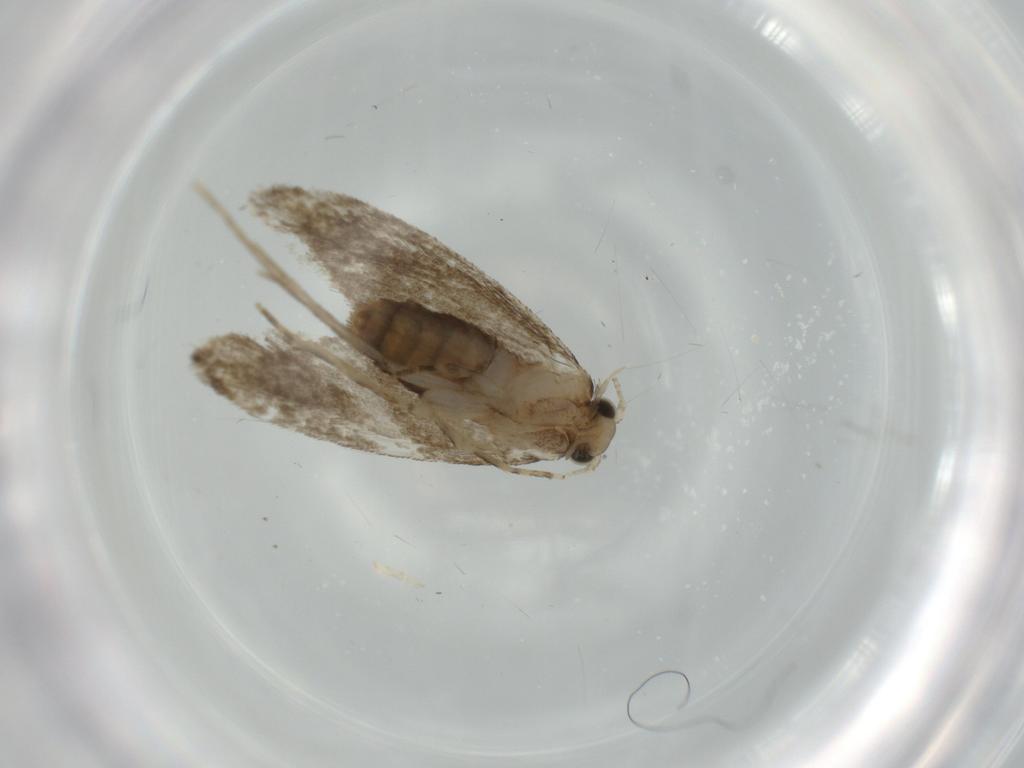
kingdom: Animalia
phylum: Arthropoda
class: Insecta
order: Lepidoptera
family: Tineidae
